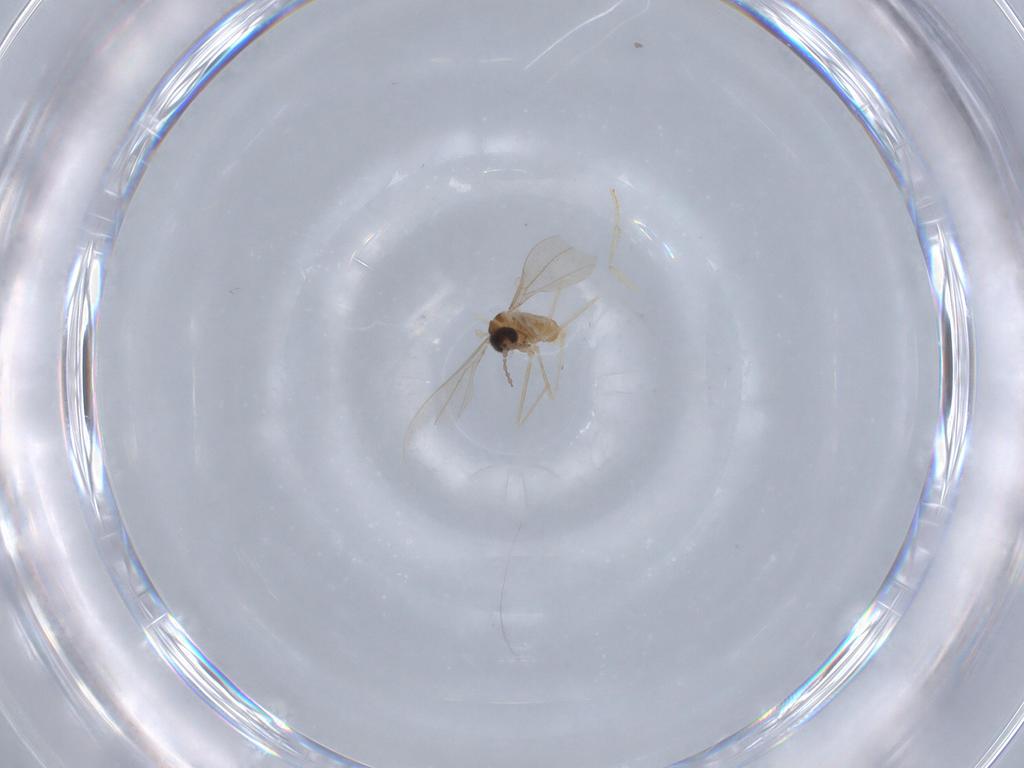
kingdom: Animalia
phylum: Arthropoda
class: Insecta
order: Diptera
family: Cecidomyiidae
